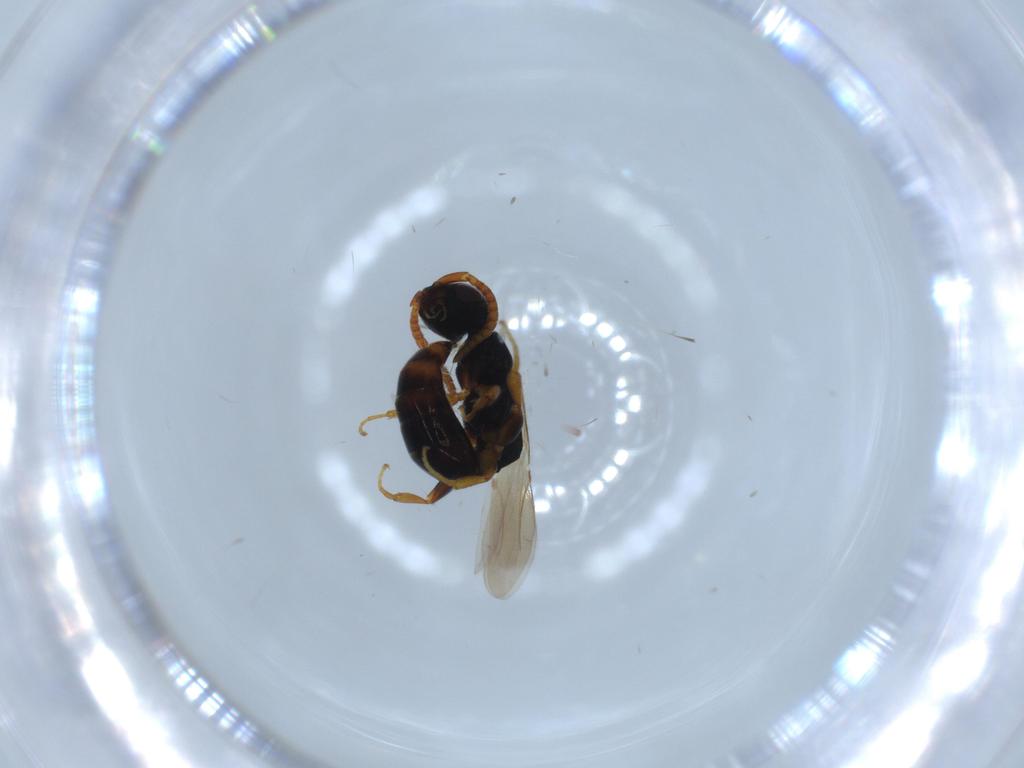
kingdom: Animalia
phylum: Arthropoda
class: Insecta
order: Hymenoptera
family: Bethylidae
